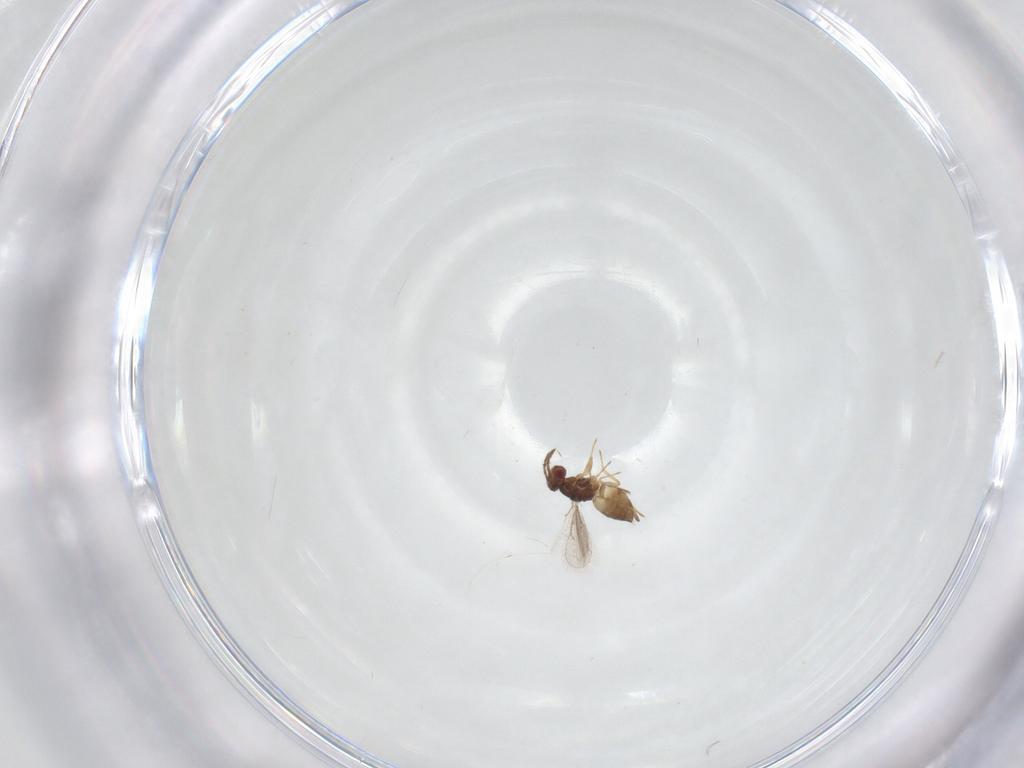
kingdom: Animalia
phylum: Arthropoda
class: Insecta
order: Hymenoptera
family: Eulophidae
